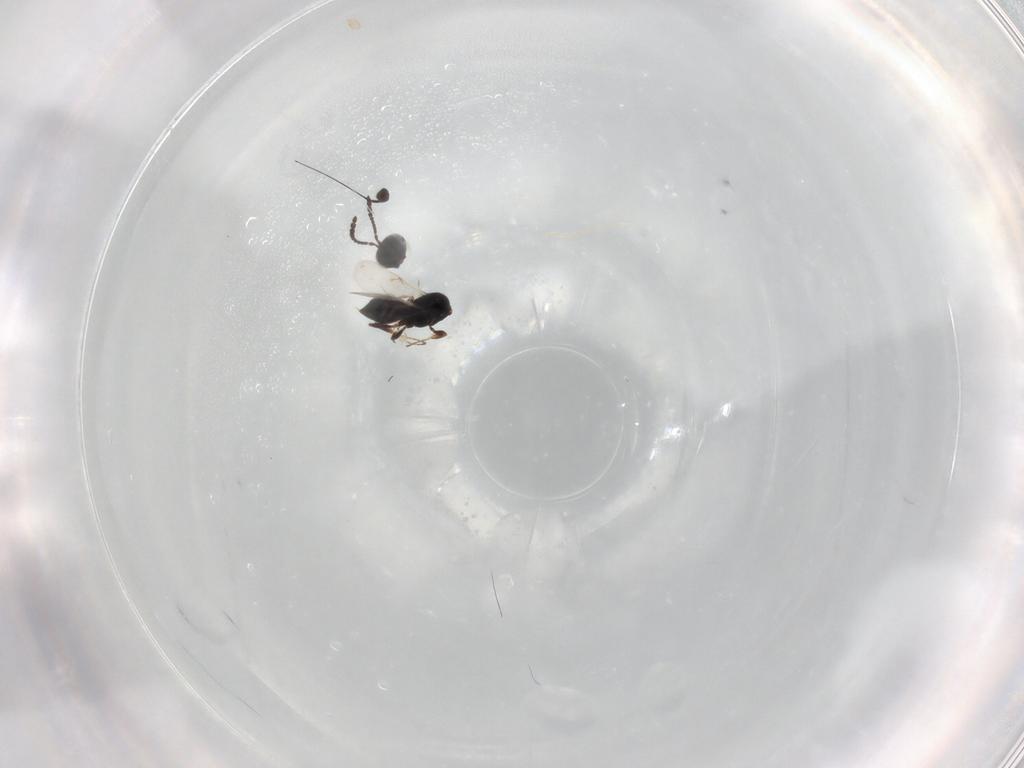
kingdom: Animalia
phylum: Arthropoda
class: Insecta
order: Hymenoptera
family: Scelionidae
